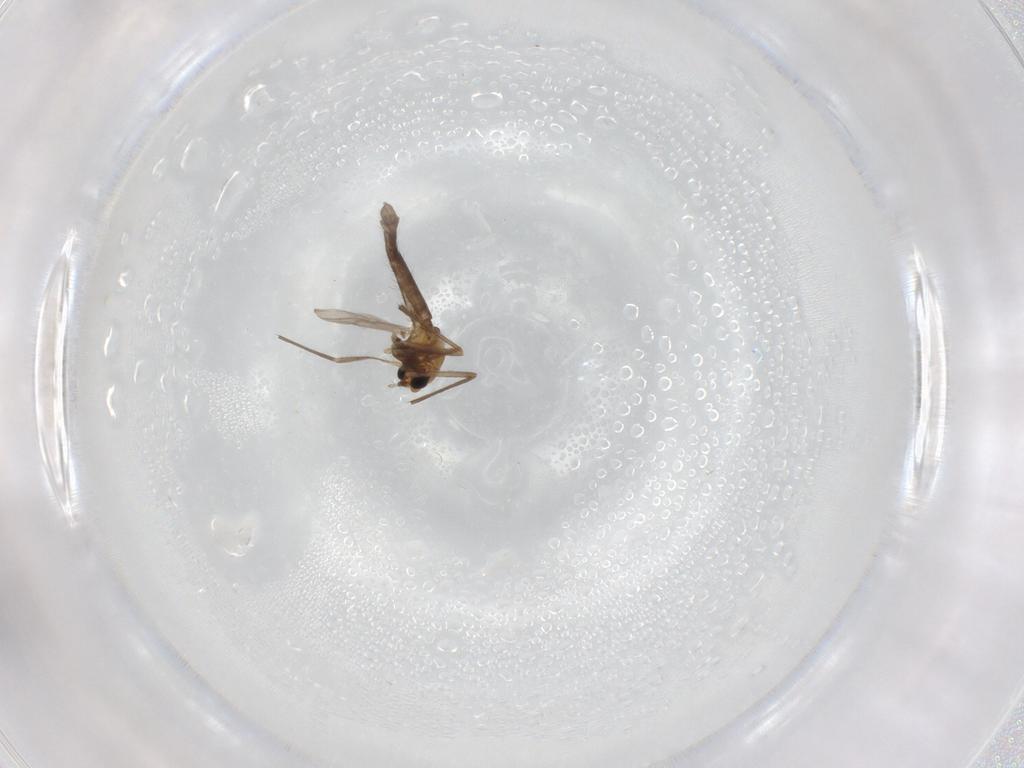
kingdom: Animalia
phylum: Arthropoda
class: Insecta
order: Diptera
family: Chironomidae
